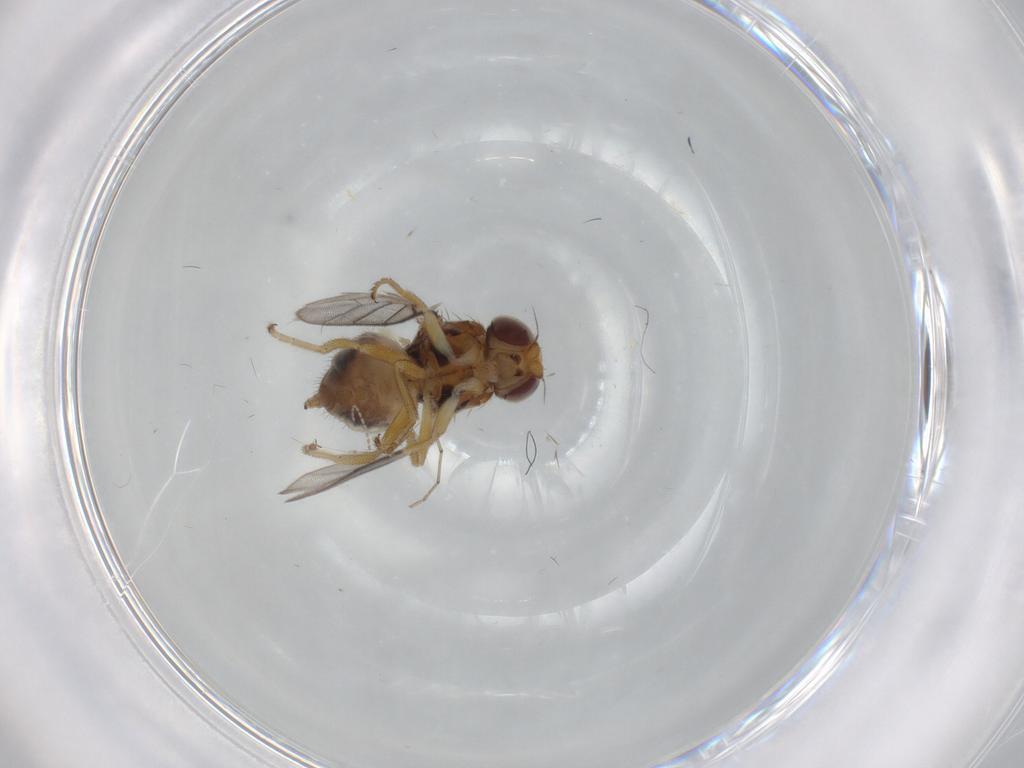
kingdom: Animalia
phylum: Arthropoda
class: Insecta
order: Diptera
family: Chloropidae
